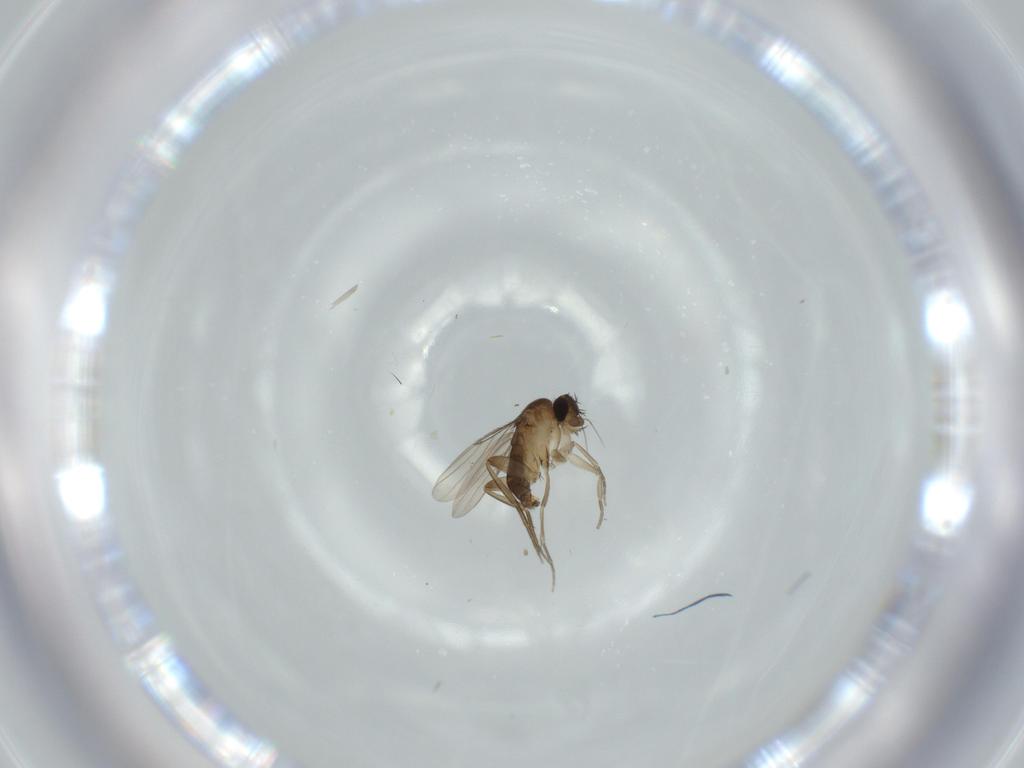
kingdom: Animalia
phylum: Arthropoda
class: Insecta
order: Diptera
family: Phoridae
